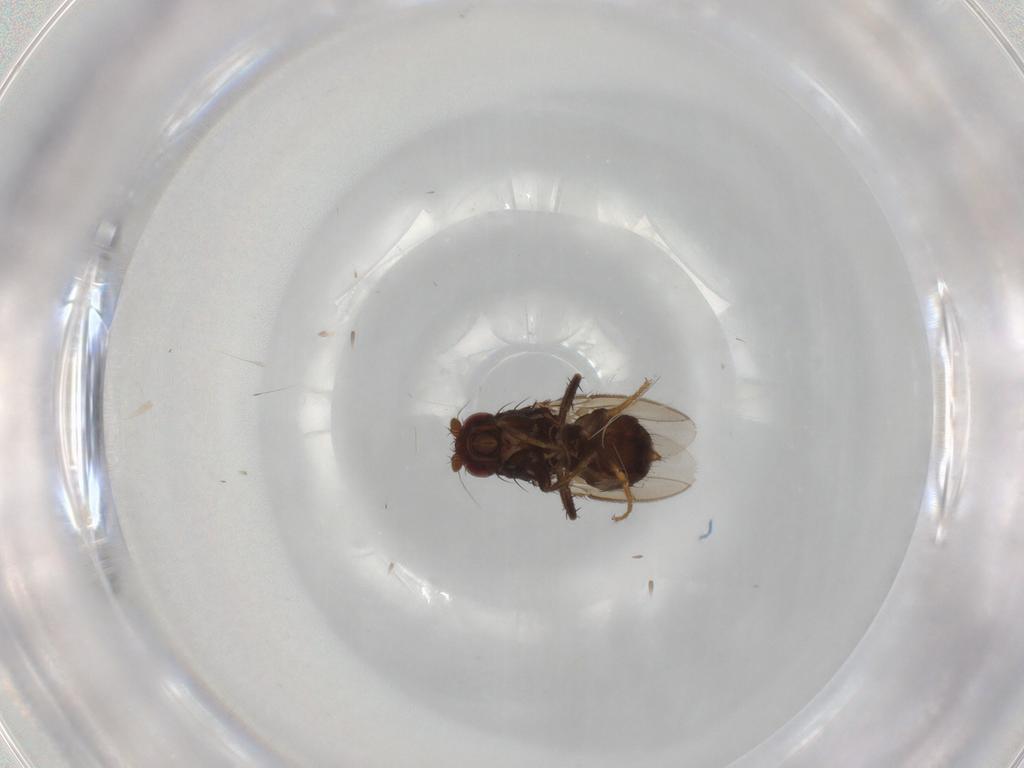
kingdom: Animalia
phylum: Arthropoda
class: Insecta
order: Diptera
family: Sphaeroceridae
